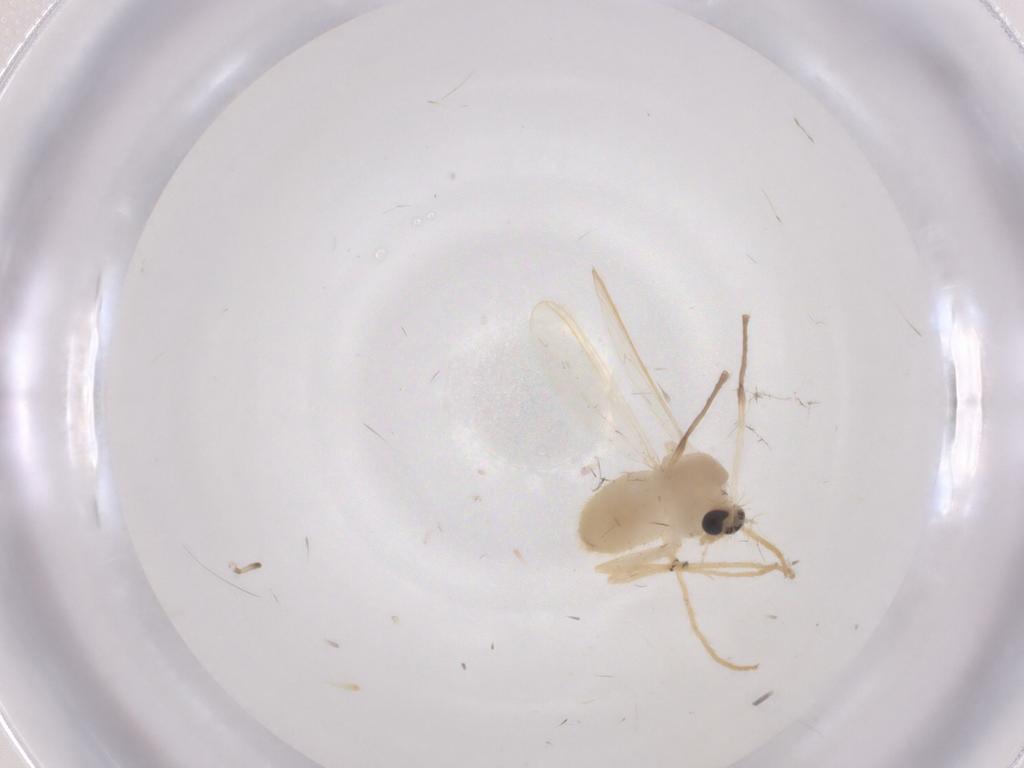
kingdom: Animalia
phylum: Arthropoda
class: Insecta
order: Diptera
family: Chironomidae
